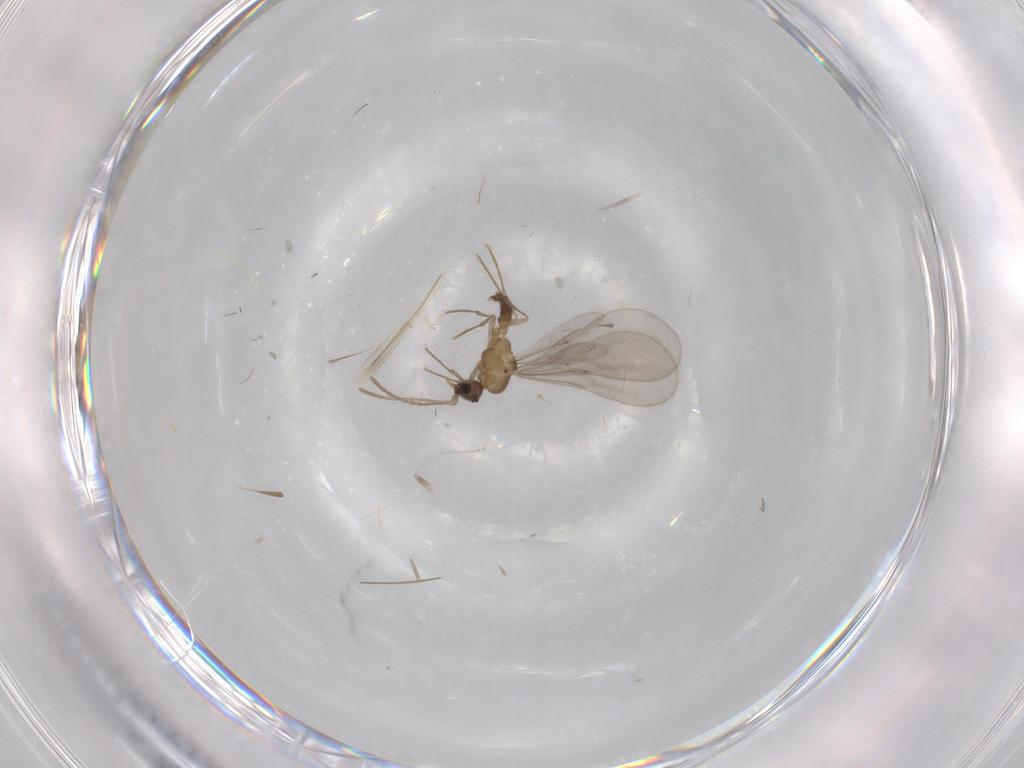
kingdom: Animalia
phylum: Arthropoda
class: Insecta
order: Hymenoptera
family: Formicidae
